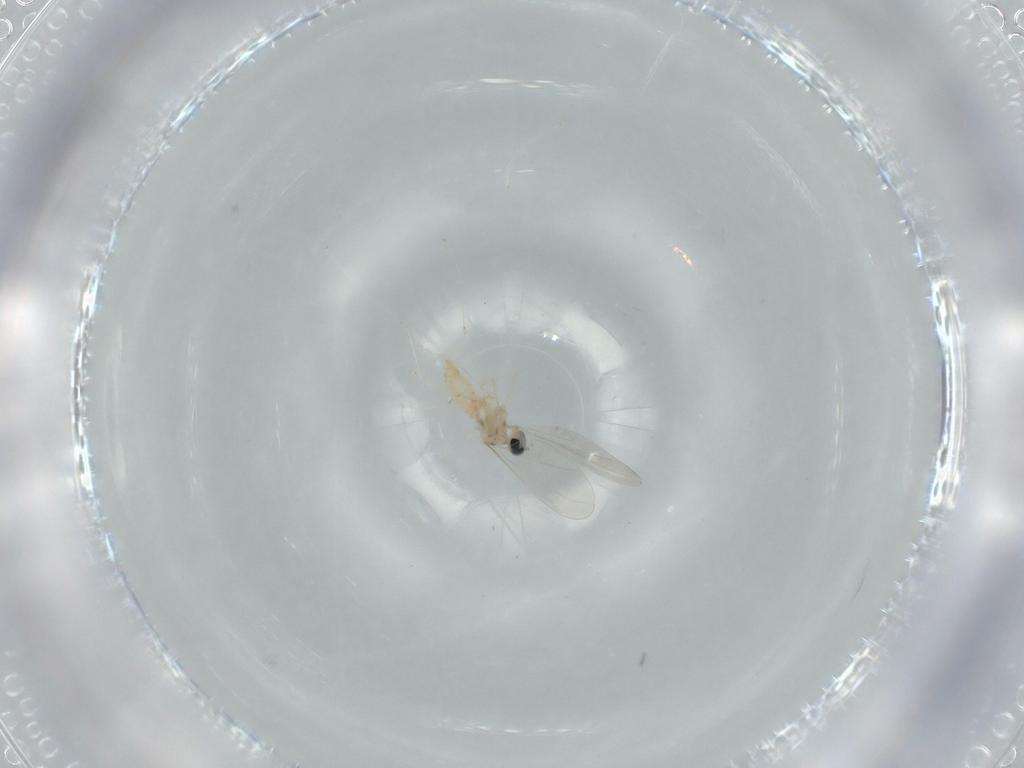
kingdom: Animalia
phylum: Arthropoda
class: Insecta
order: Diptera
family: Cecidomyiidae
